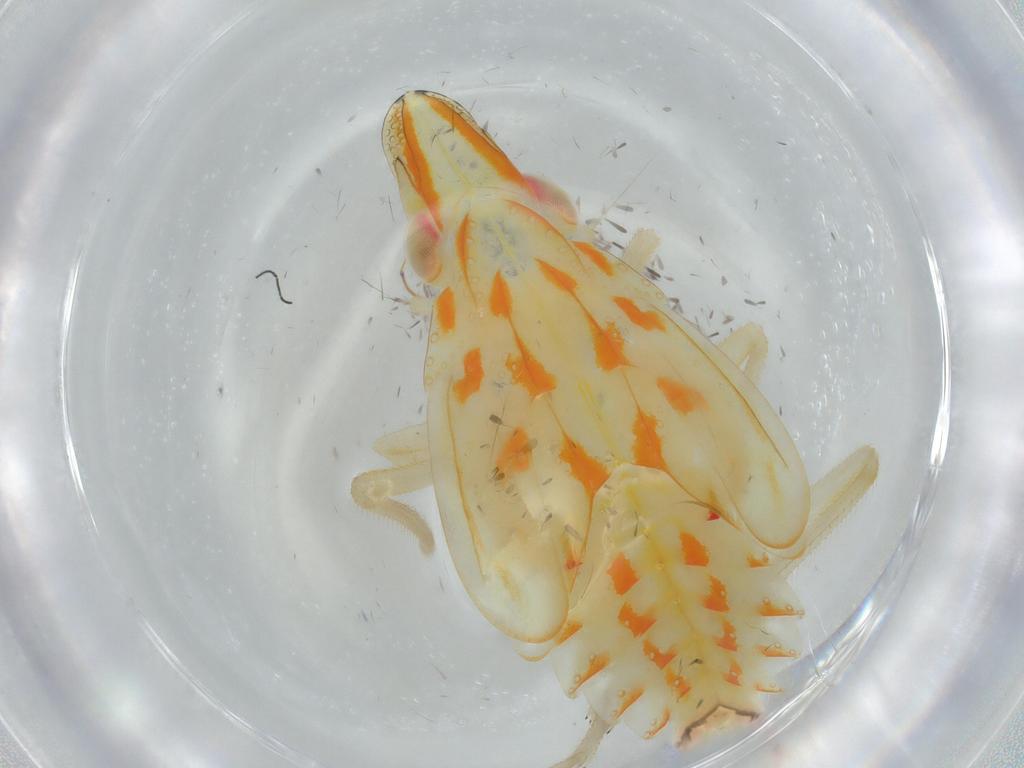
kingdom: Animalia
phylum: Arthropoda
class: Insecta
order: Hemiptera
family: Tropiduchidae
